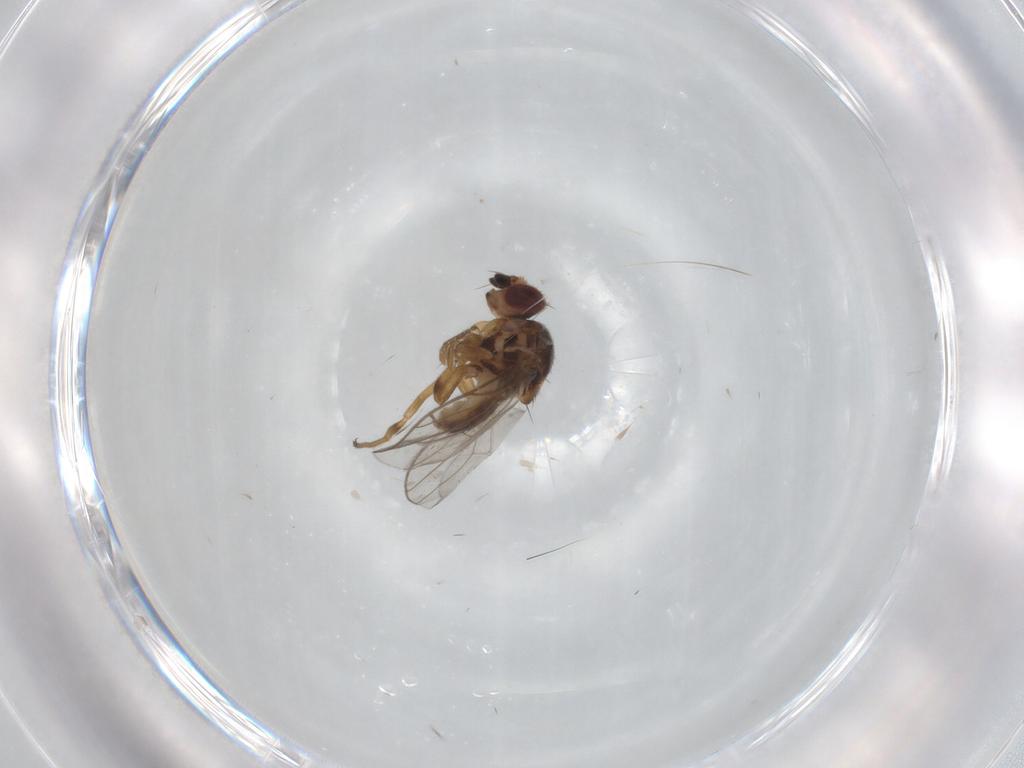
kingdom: Animalia
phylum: Arthropoda
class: Insecta
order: Diptera
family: Chloropidae
